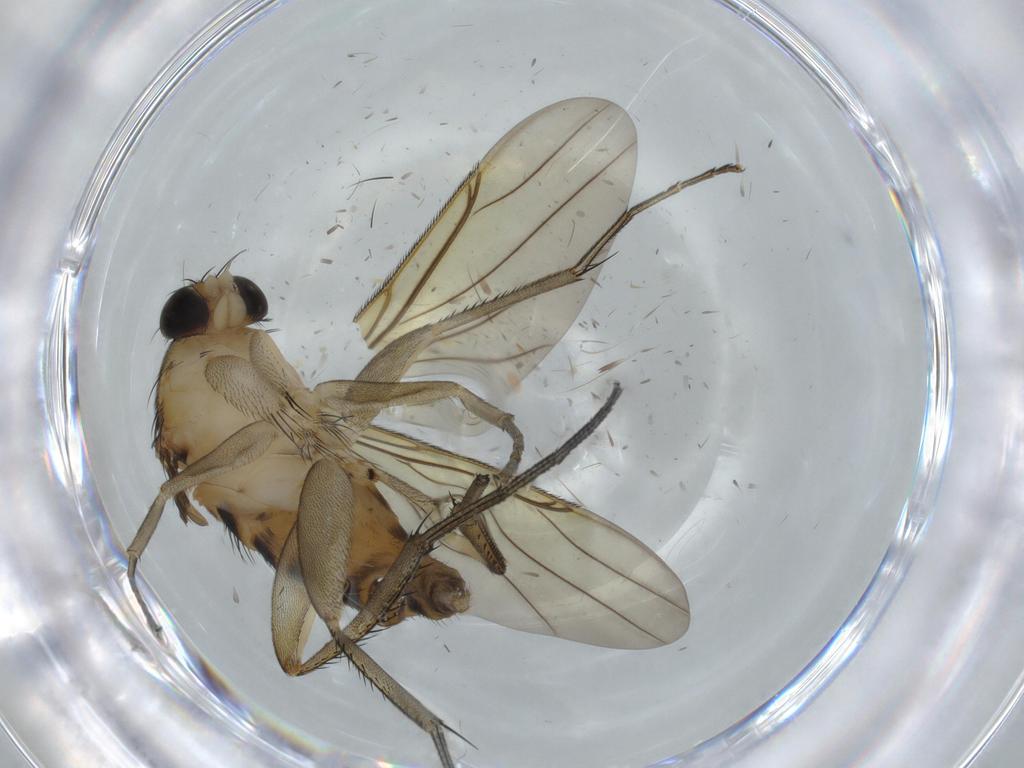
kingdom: Animalia
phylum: Arthropoda
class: Insecta
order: Diptera
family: Phoridae
